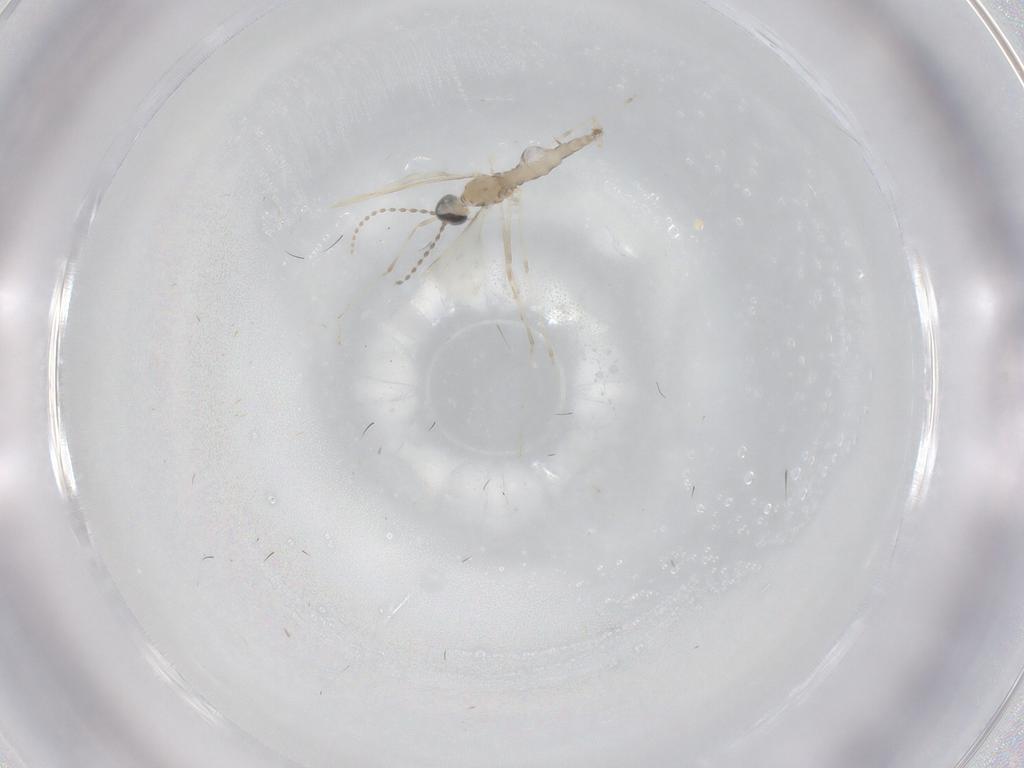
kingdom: Animalia
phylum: Arthropoda
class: Insecta
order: Diptera
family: Cecidomyiidae
